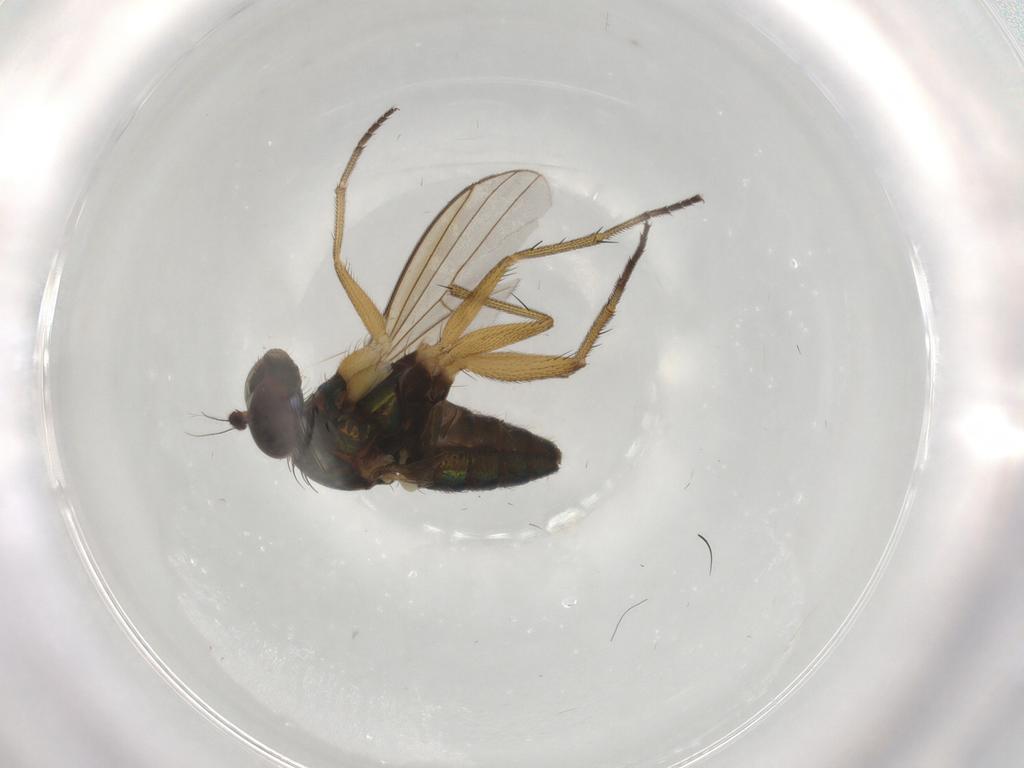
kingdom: Animalia
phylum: Arthropoda
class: Insecta
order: Diptera
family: Dolichopodidae
